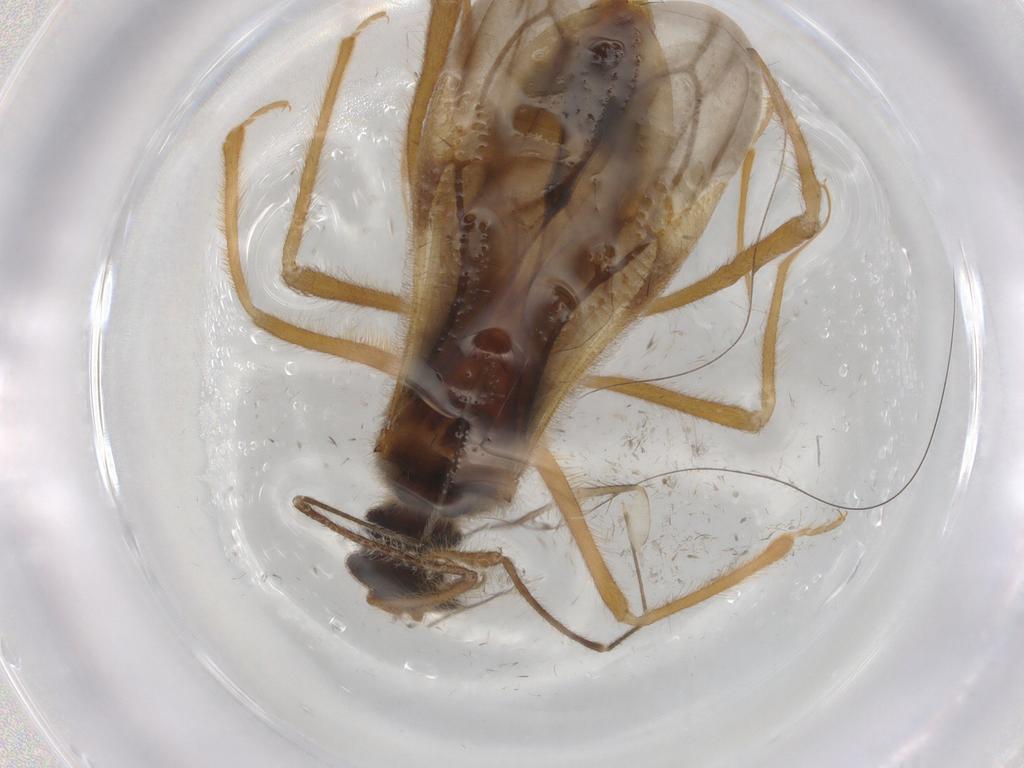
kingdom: Animalia
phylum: Arthropoda
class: Insecta
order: Hemiptera
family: Reduviidae
